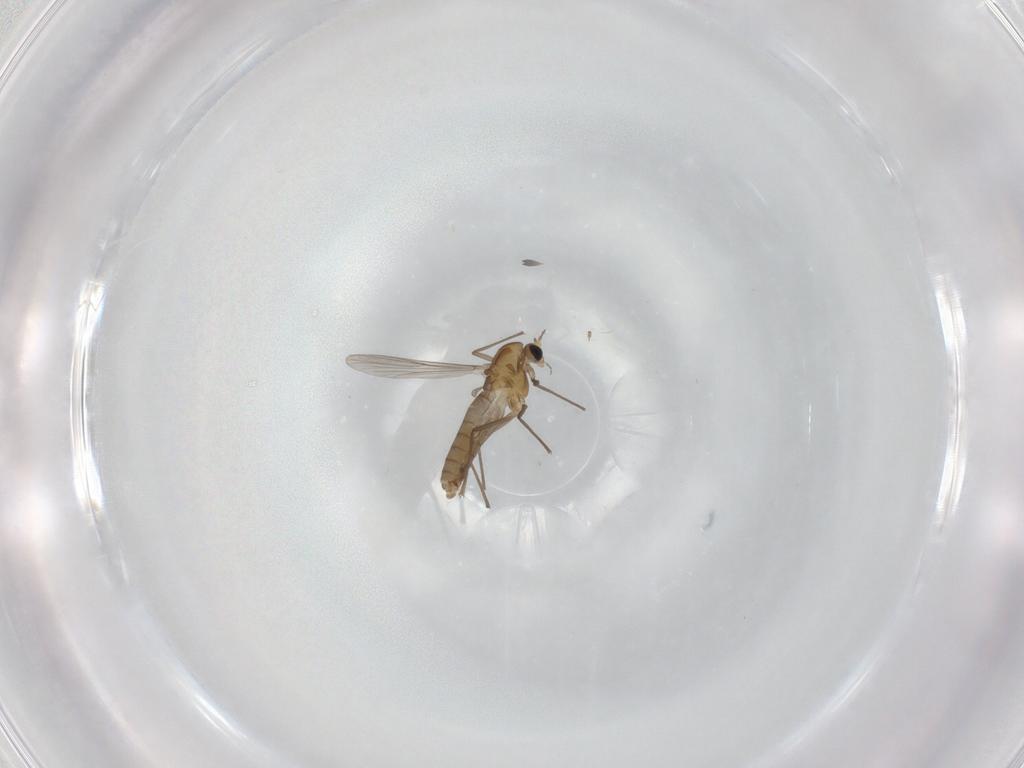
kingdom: Animalia
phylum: Arthropoda
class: Insecta
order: Diptera
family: Cecidomyiidae
